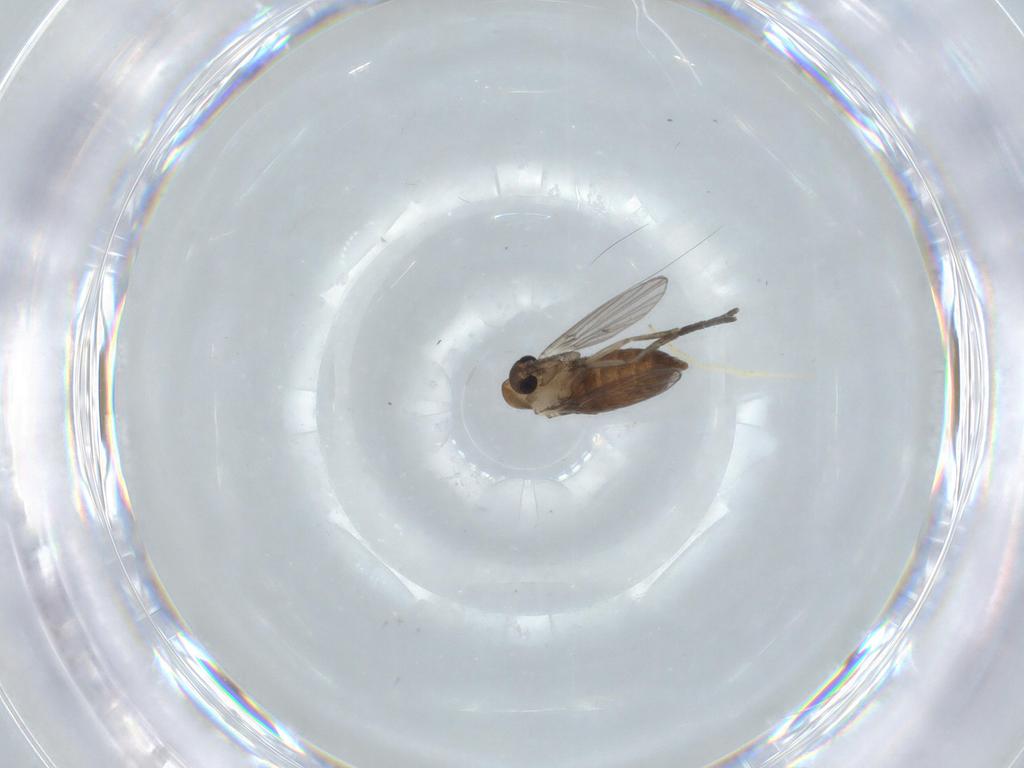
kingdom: Animalia
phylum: Arthropoda
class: Insecta
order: Diptera
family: Psychodidae
